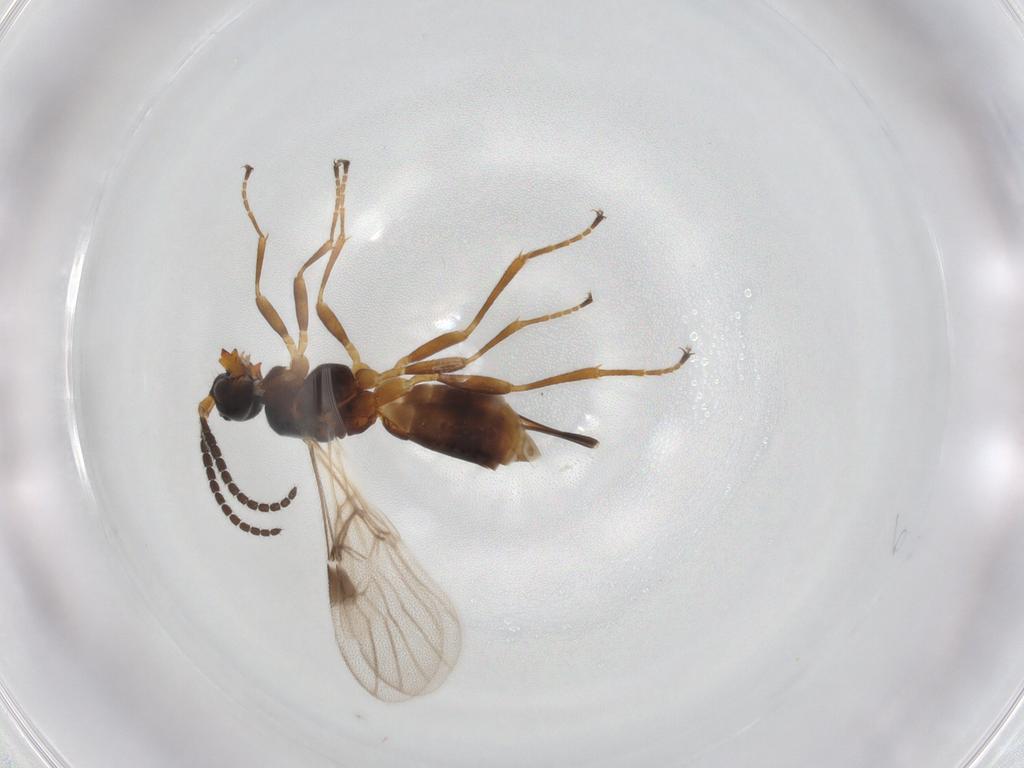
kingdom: Animalia
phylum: Arthropoda
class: Insecta
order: Hymenoptera
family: Braconidae
